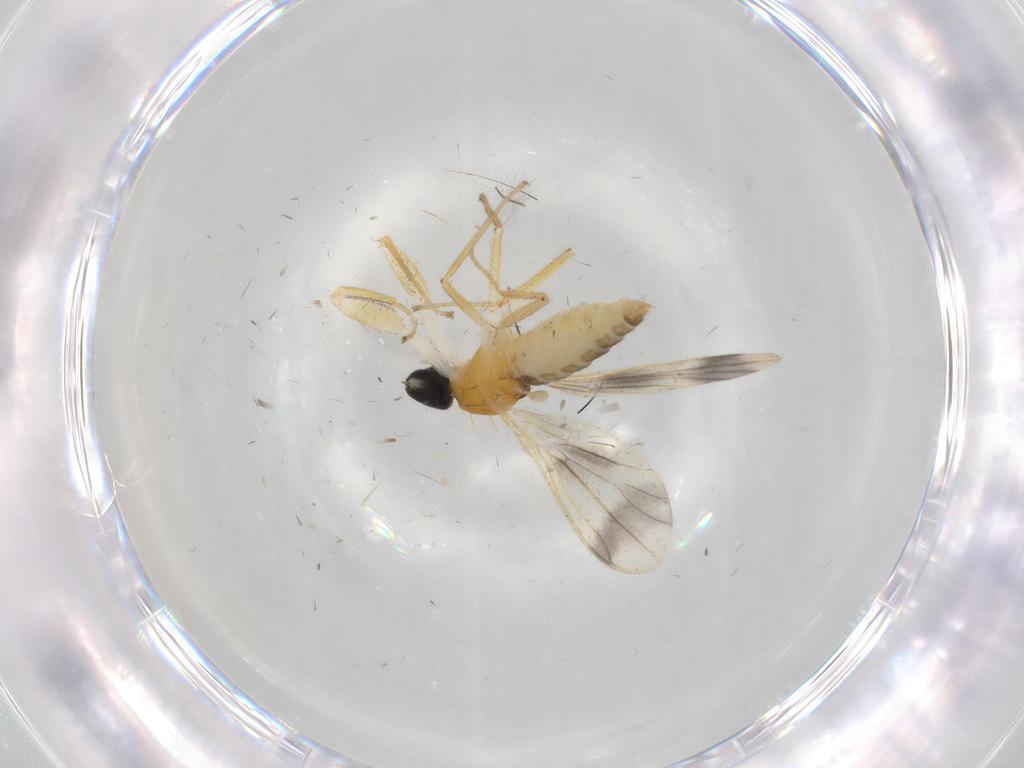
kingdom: Animalia
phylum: Arthropoda
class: Insecta
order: Diptera
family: Empididae
